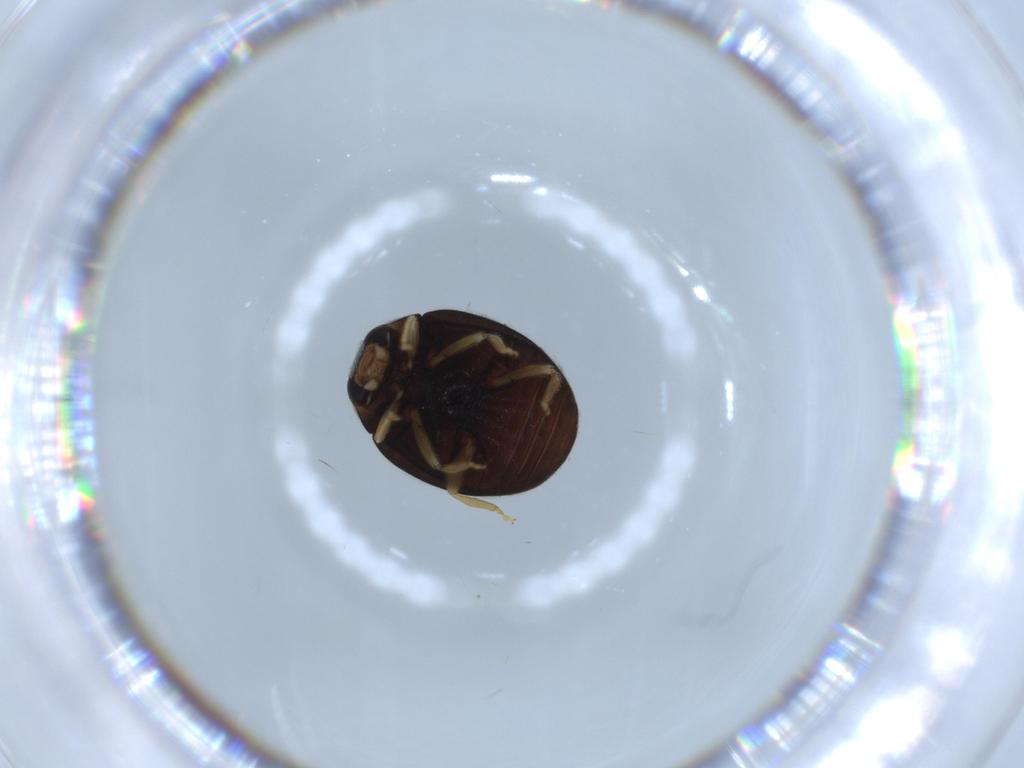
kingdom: Animalia
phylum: Arthropoda
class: Insecta
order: Coleoptera
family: Coccinellidae
